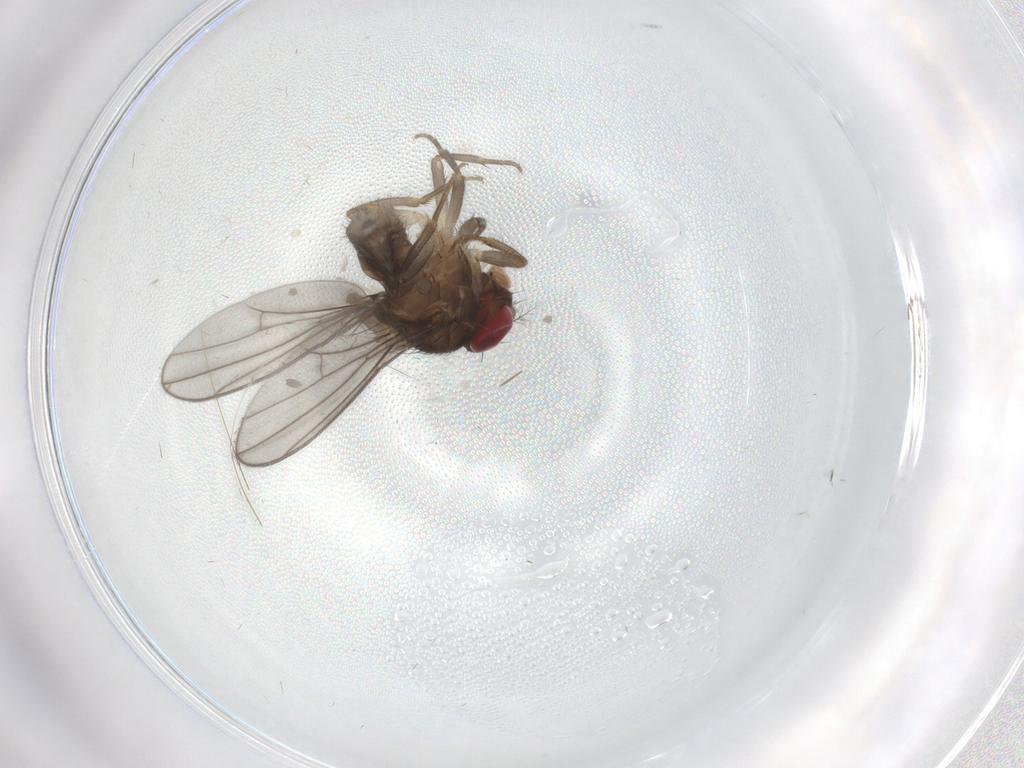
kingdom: Animalia
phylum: Arthropoda
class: Insecta
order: Diptera
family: Drosophilidae
